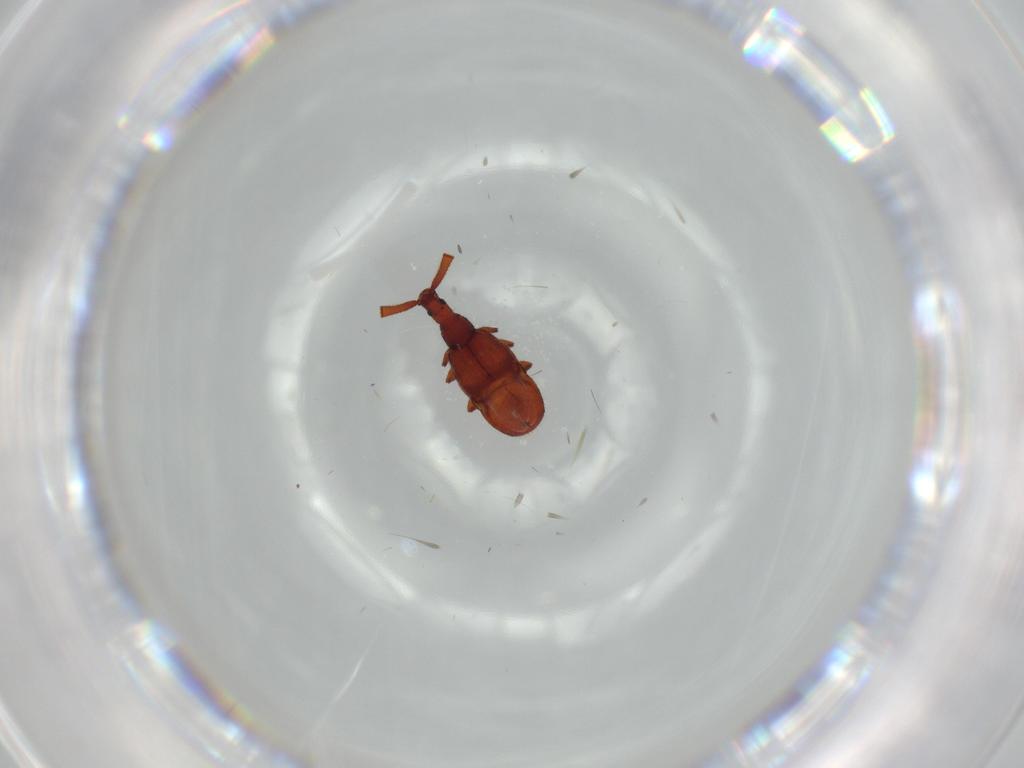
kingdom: Animalia
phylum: Arthropoda
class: Insecta
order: Coleoptera
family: Staphylinidae
